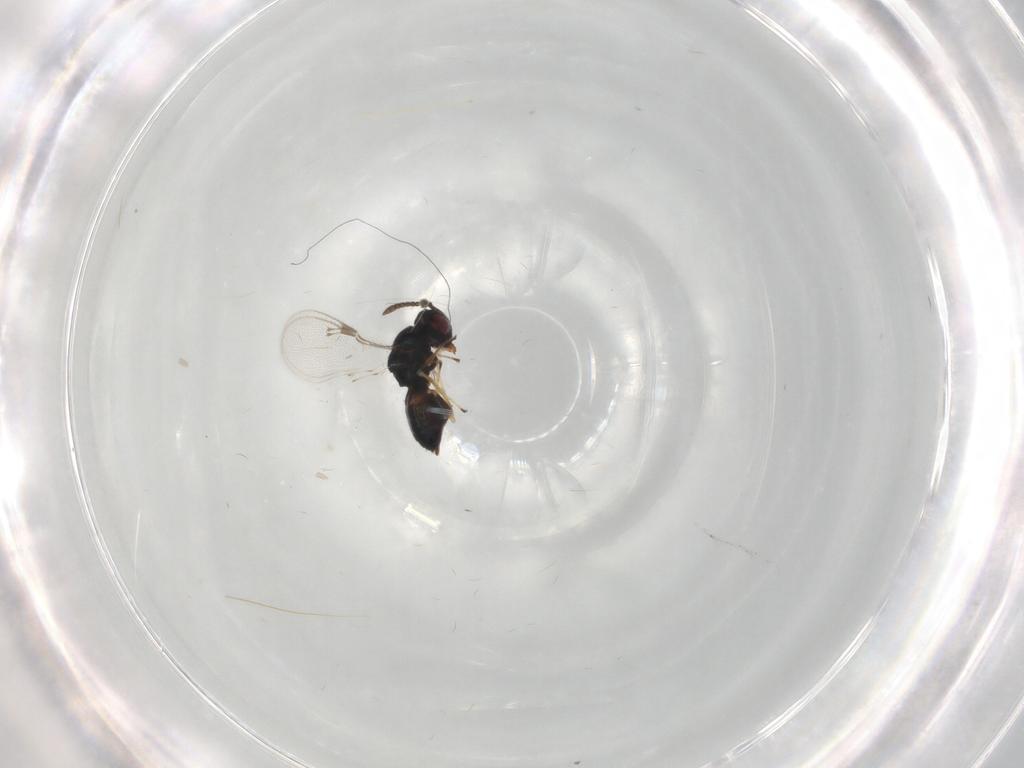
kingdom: Animalia
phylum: Arthropoda
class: Insecta
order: Hymenoptera
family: Pteromalidae
